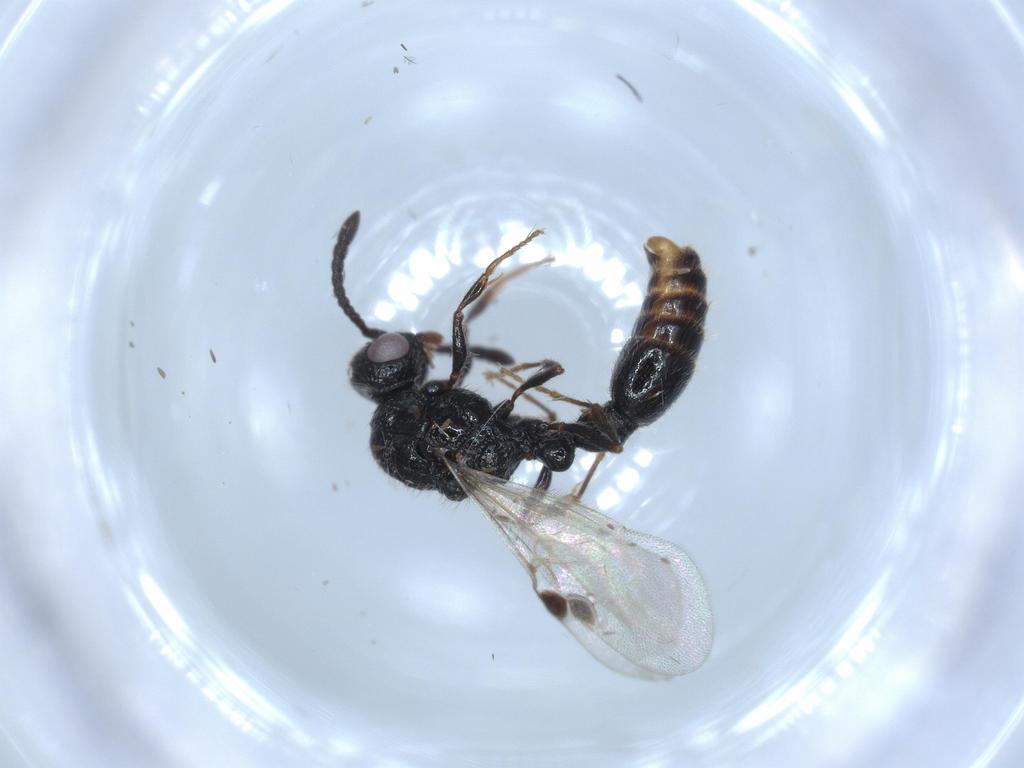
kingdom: Animalia
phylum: Arthropoda
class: Insecta
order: Hymenoptera
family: Formicidae
